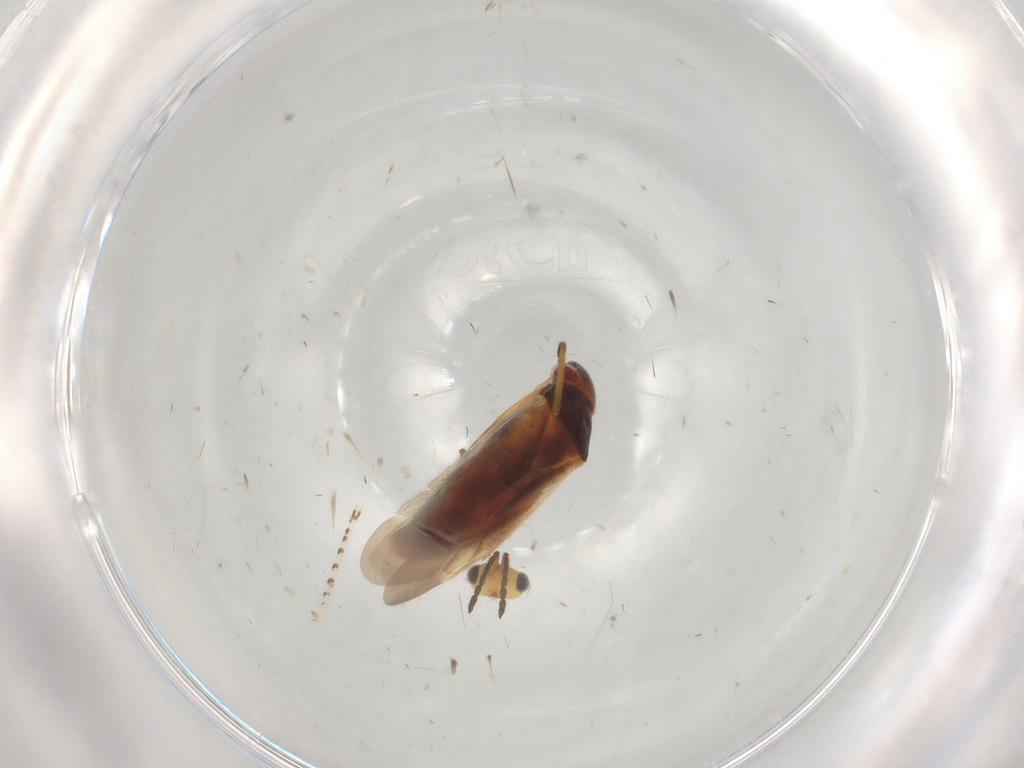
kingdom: Animalia
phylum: Arthropoda
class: Insecta
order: Hemiptera
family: Miridae
